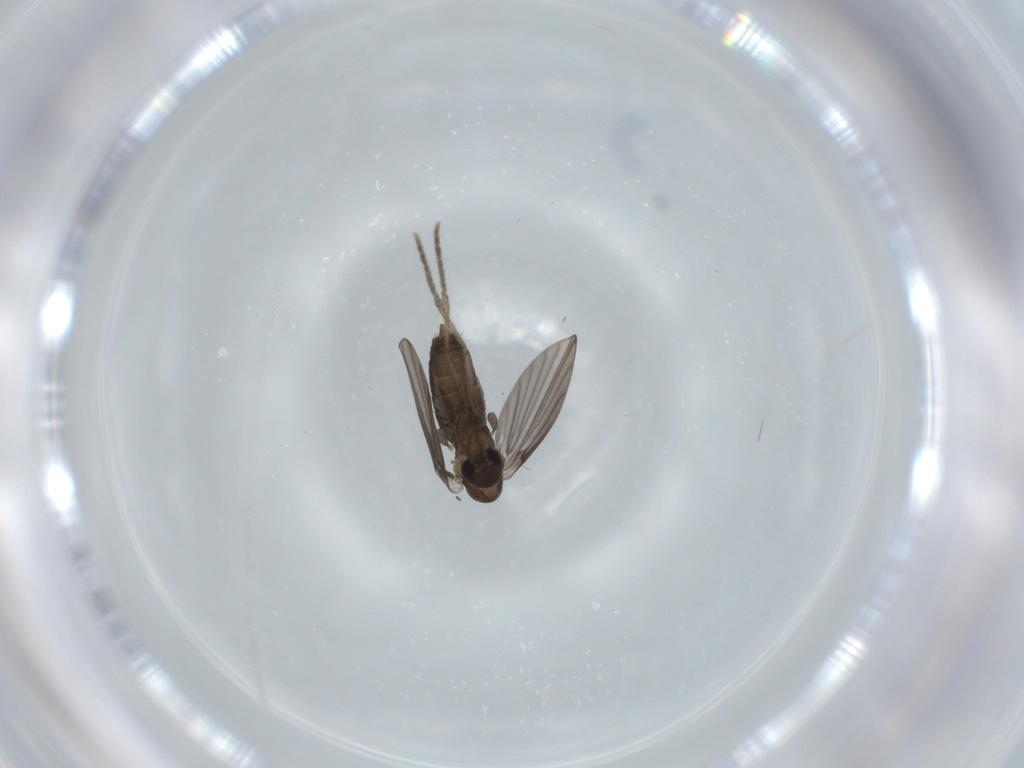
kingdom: Animalia
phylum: Arthropoda
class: Insecta
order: Diptera
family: Psychodidae
